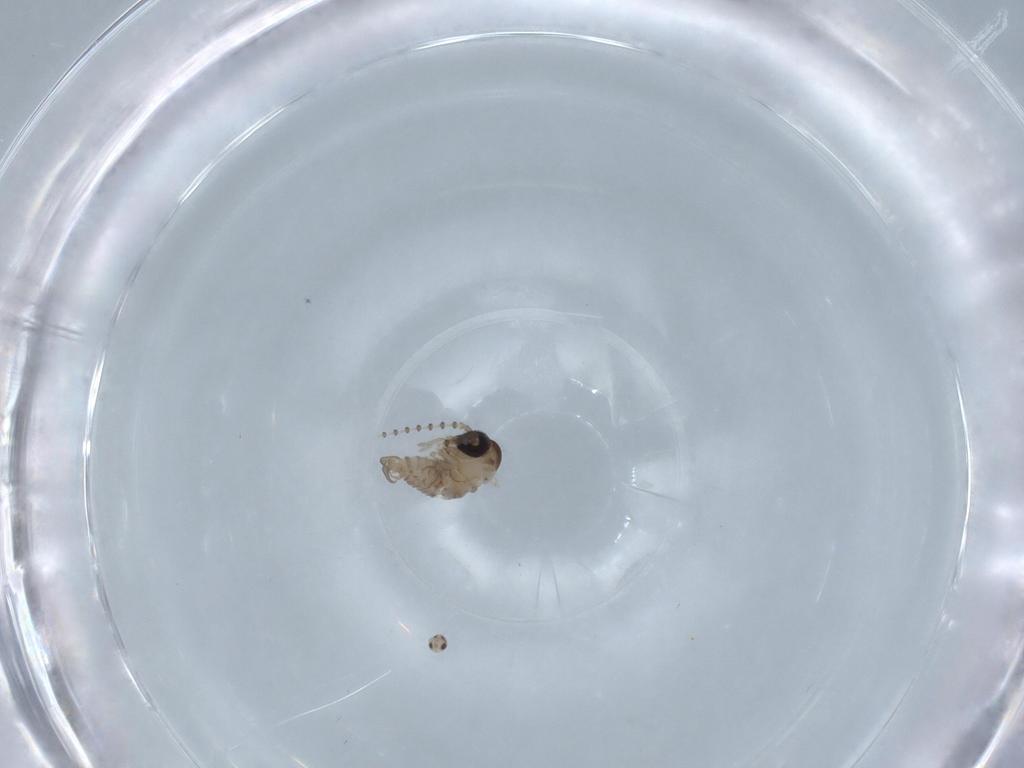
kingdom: Animalia
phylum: Arthropoda
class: Insecta
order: Diptera
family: Psychodidae
